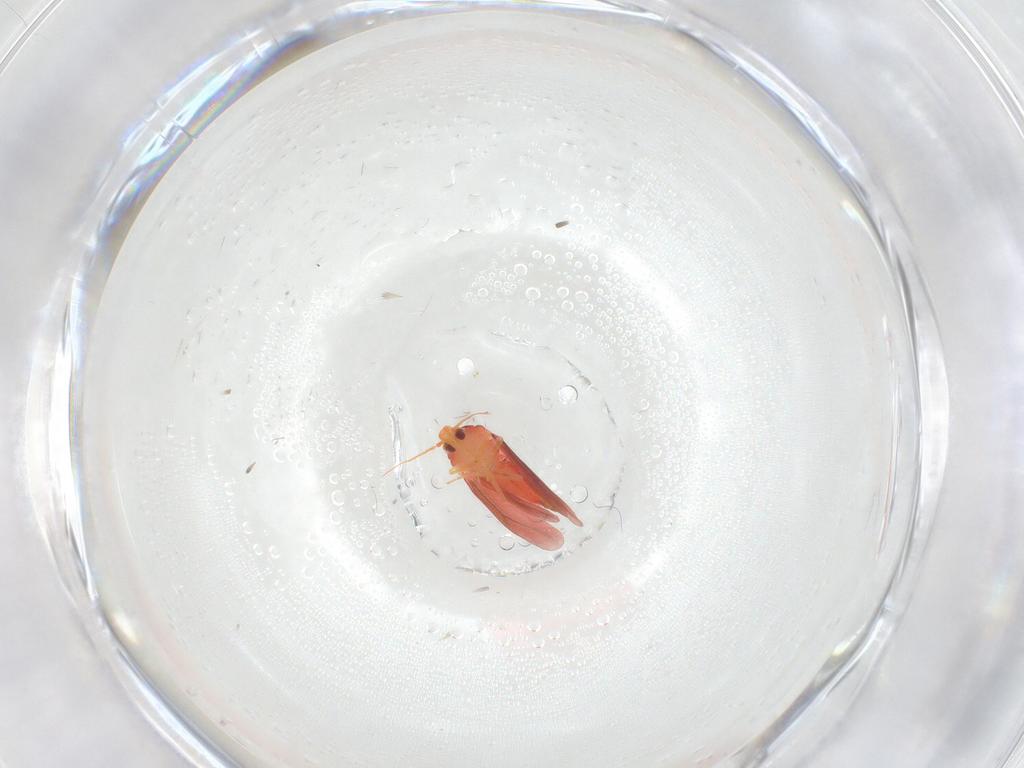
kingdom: Animalia
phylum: Arthropoda
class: Insecta
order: Hemiptera
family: Aleyrodidae
